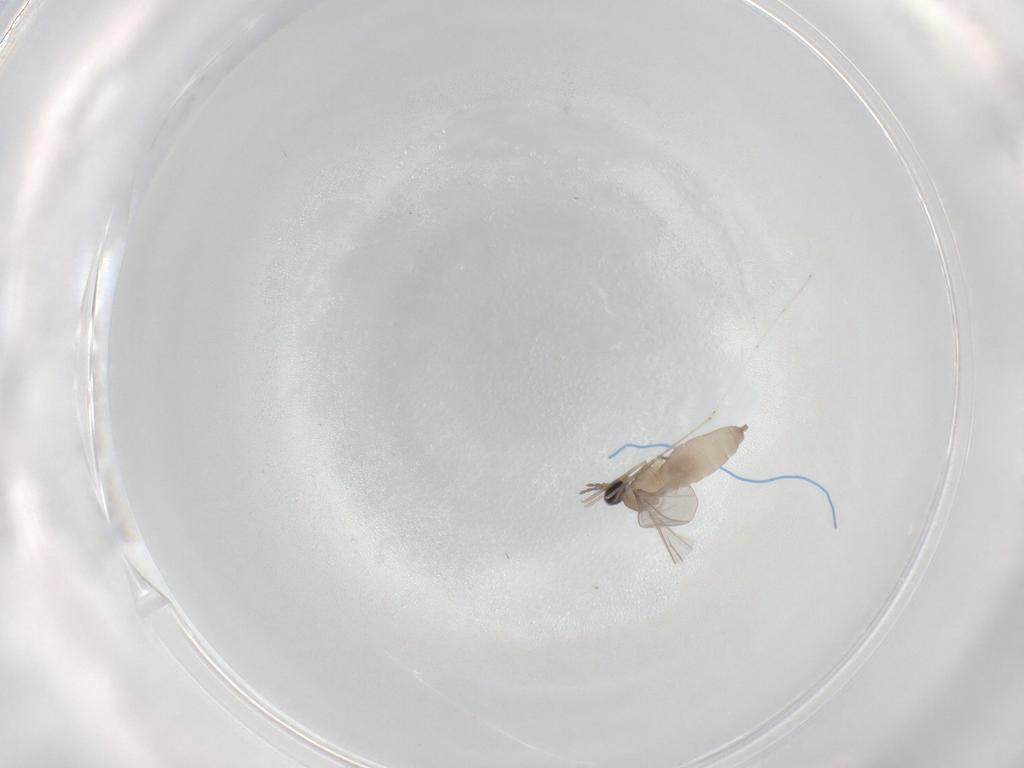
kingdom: Animalia
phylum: Arthropoda
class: Insecta
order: Diptera
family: Cecidomyiidae
